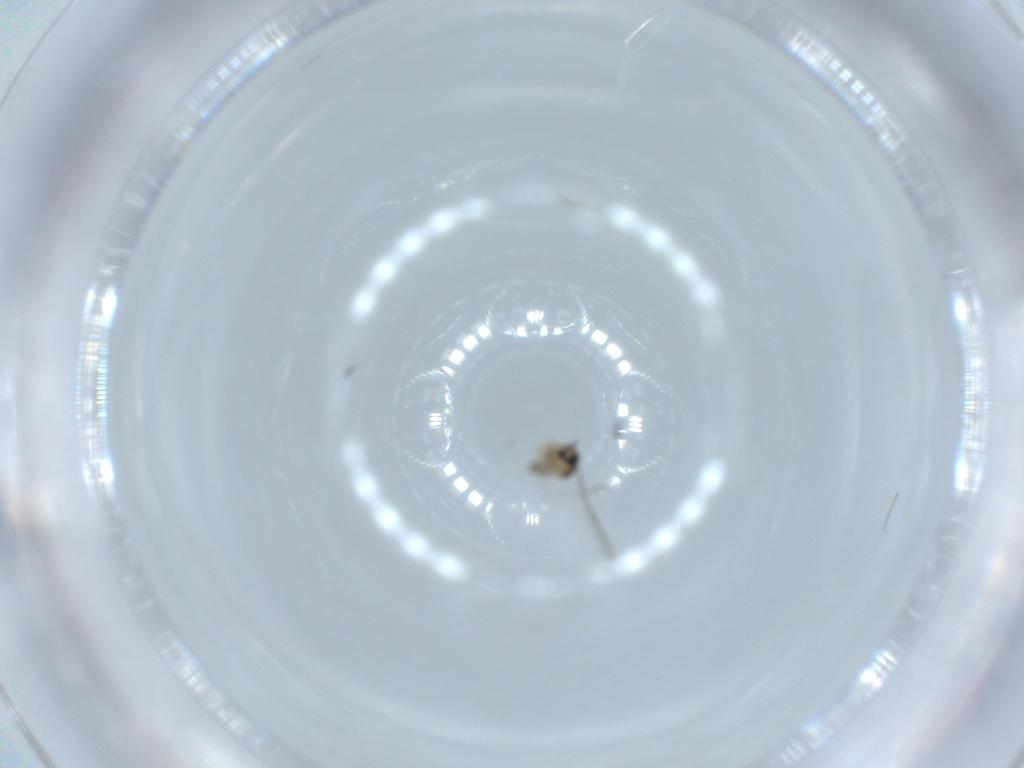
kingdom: Animalia
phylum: Arthropoda
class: Insecta
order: Diptera
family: Cecidomyiidae
